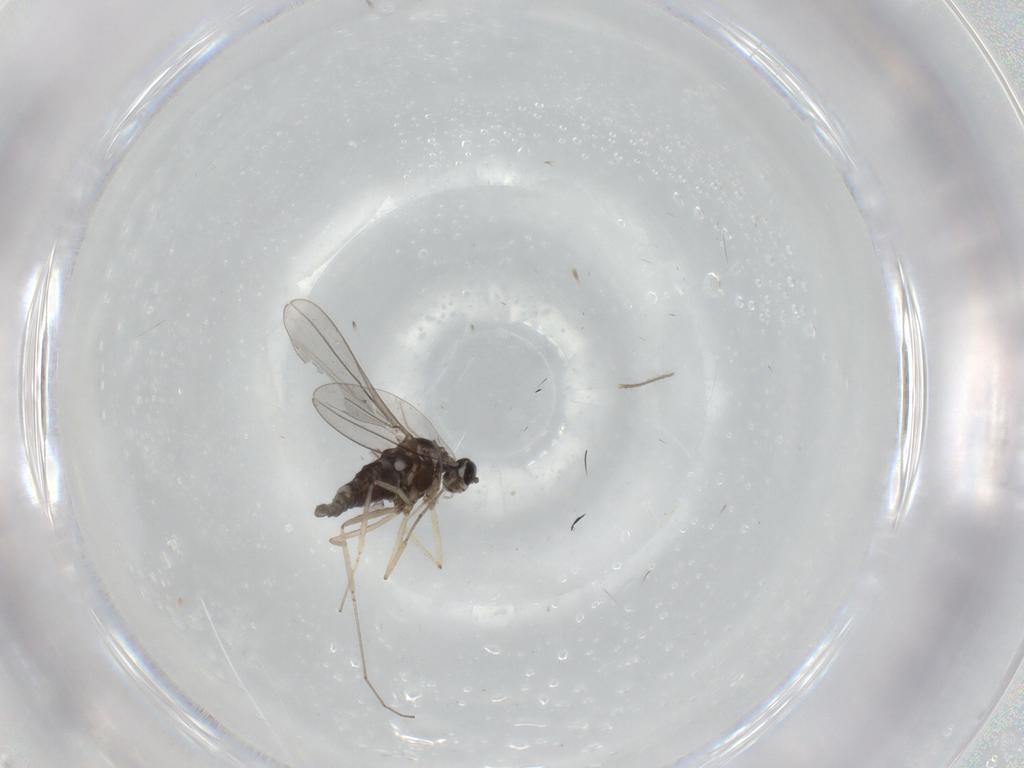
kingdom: Animalia
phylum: Arthropoda
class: Insecta
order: Diptera
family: Cecidomyiidae
